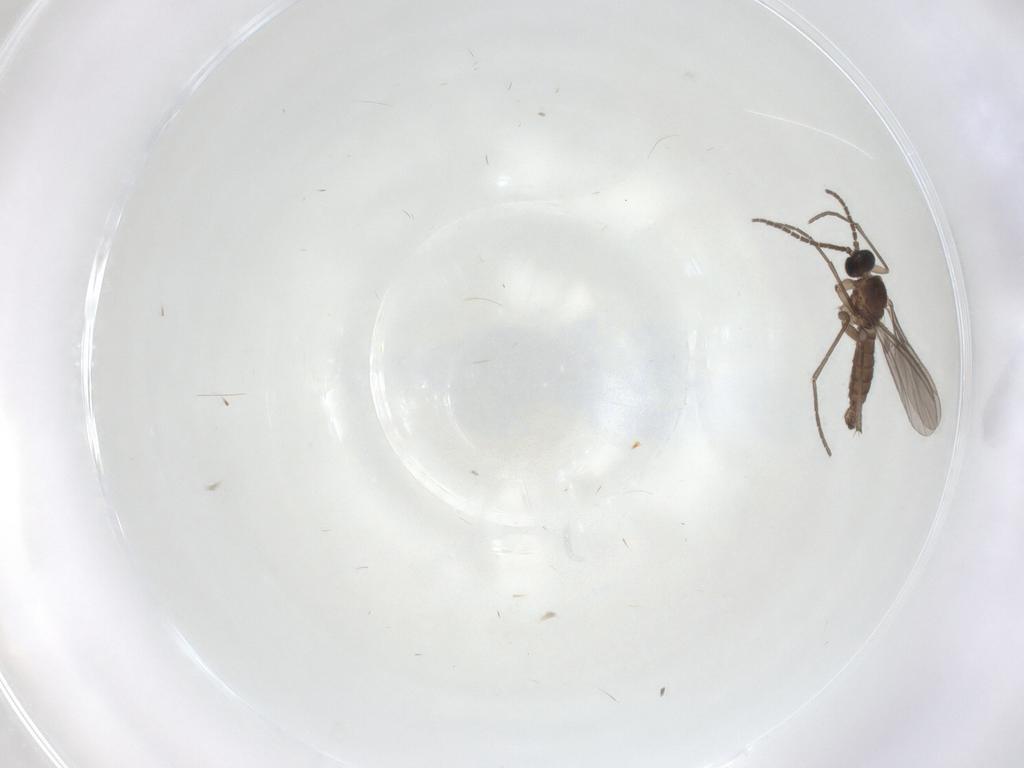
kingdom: Animalia
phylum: Arthropoda
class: Insecta
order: Diptera
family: Sciaridae
